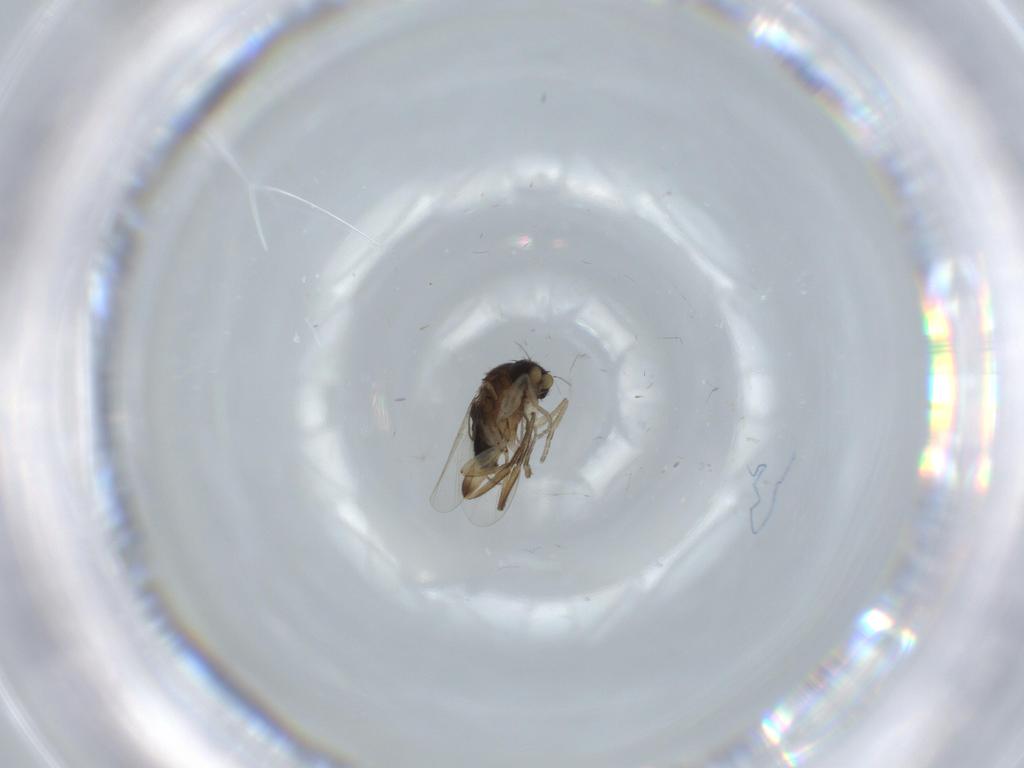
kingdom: Animalia
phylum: Arthropoda
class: Insecta
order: Diptera
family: Phoridae
